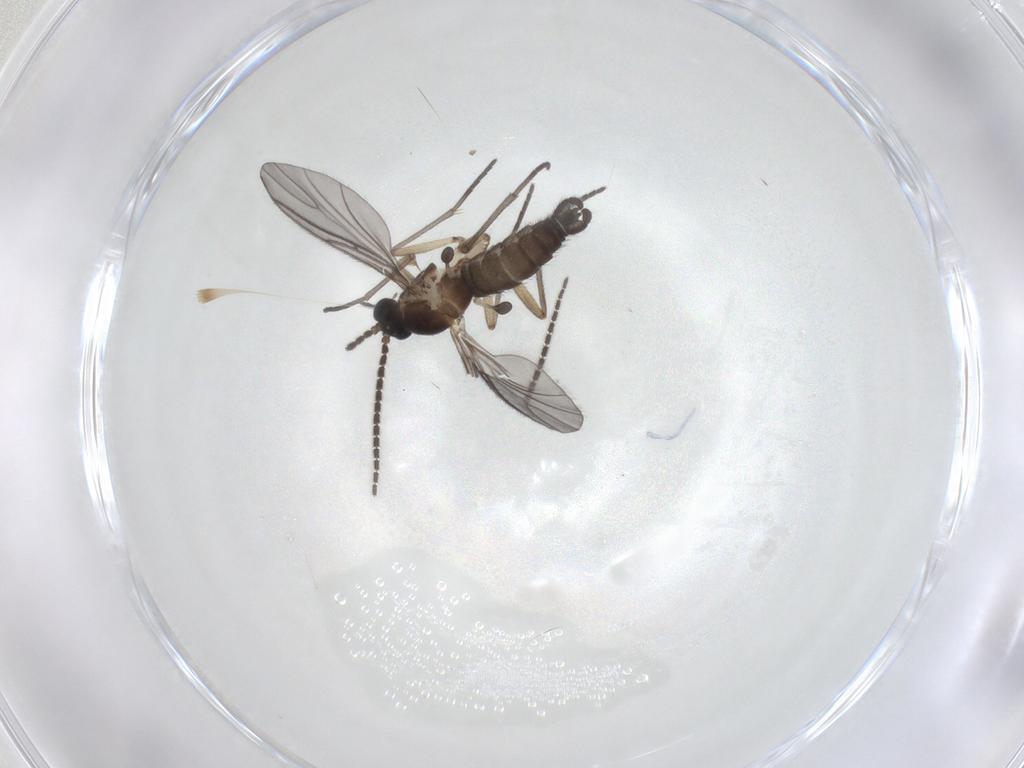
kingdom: Animalia
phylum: Arthropoda
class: Insecta
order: Diptera
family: Sciaridae
